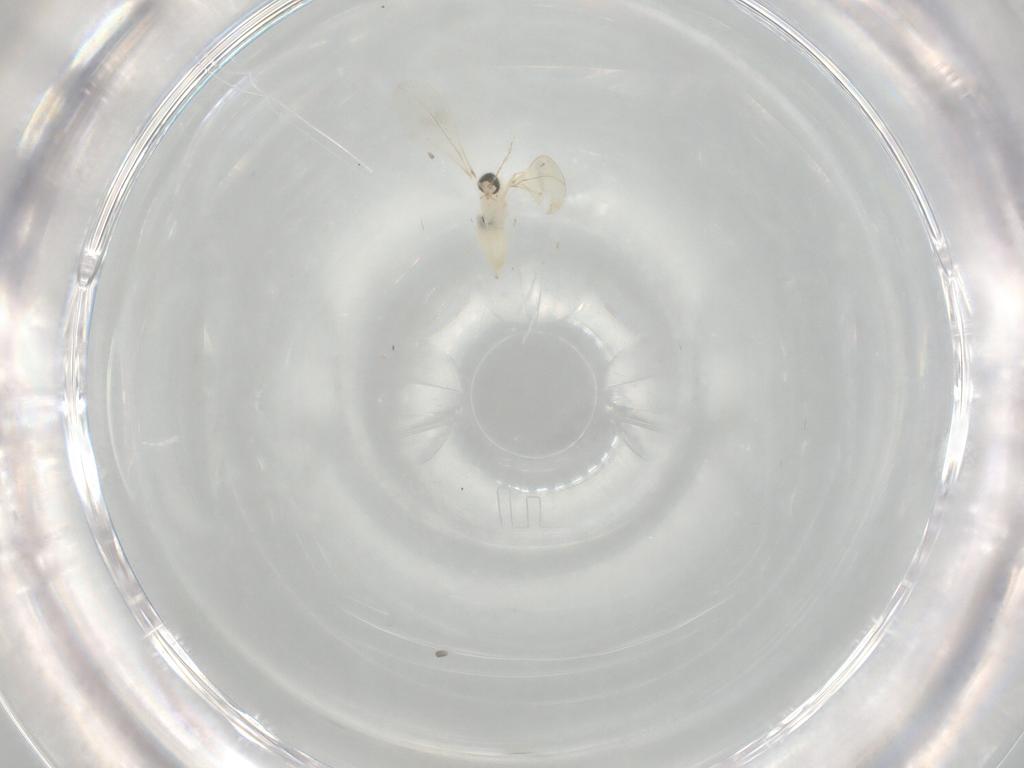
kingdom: Animalia
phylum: Arthropoda
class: Insecta
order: Diptera
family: Cecidomyiidae
